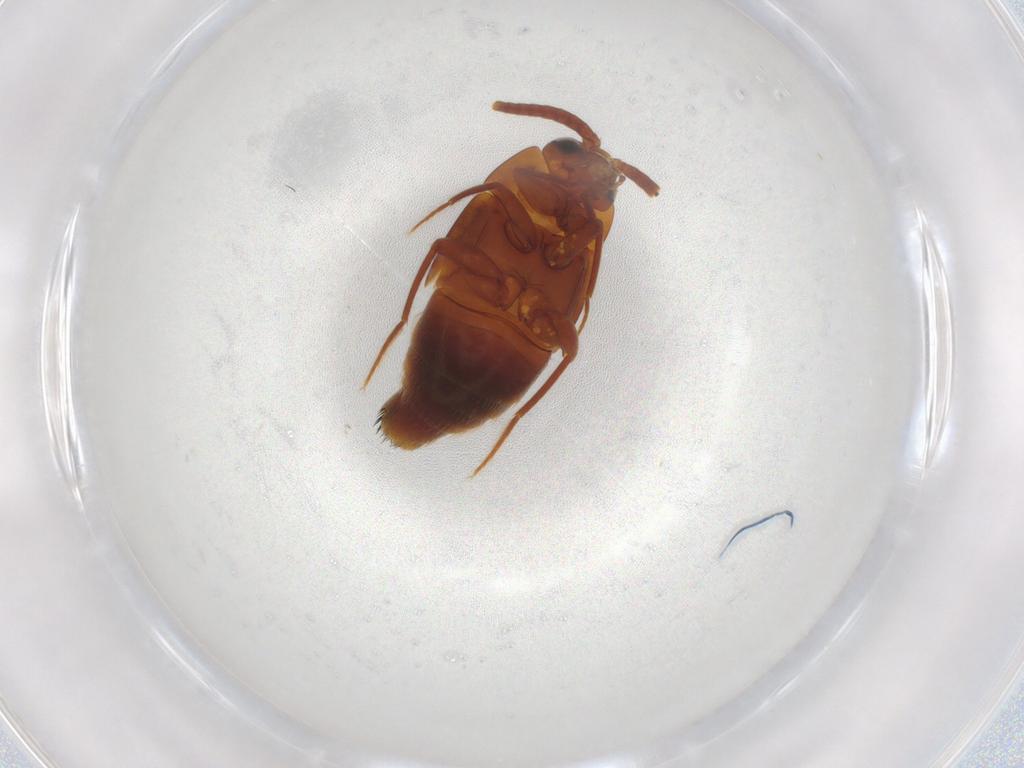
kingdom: Animalia
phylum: Arthropoda
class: Insecta
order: Coleoptera
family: Staphylinidae
